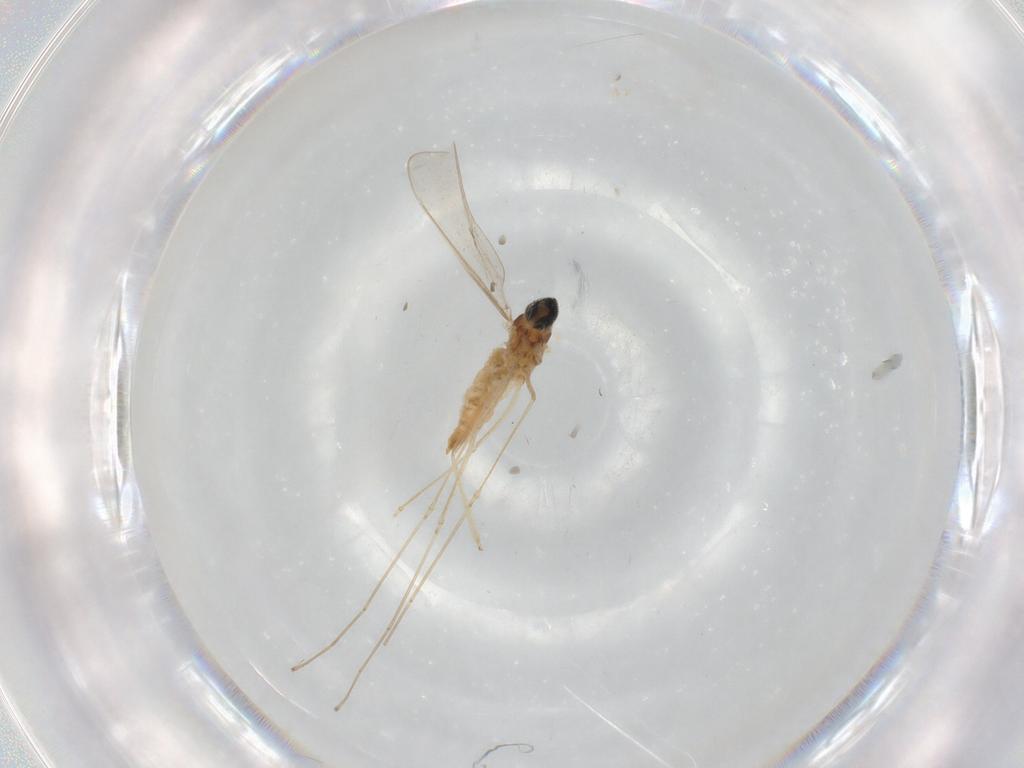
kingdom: Animalia
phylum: Arthropoda
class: Insecta
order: Diptera
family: Cecidomyiidae
